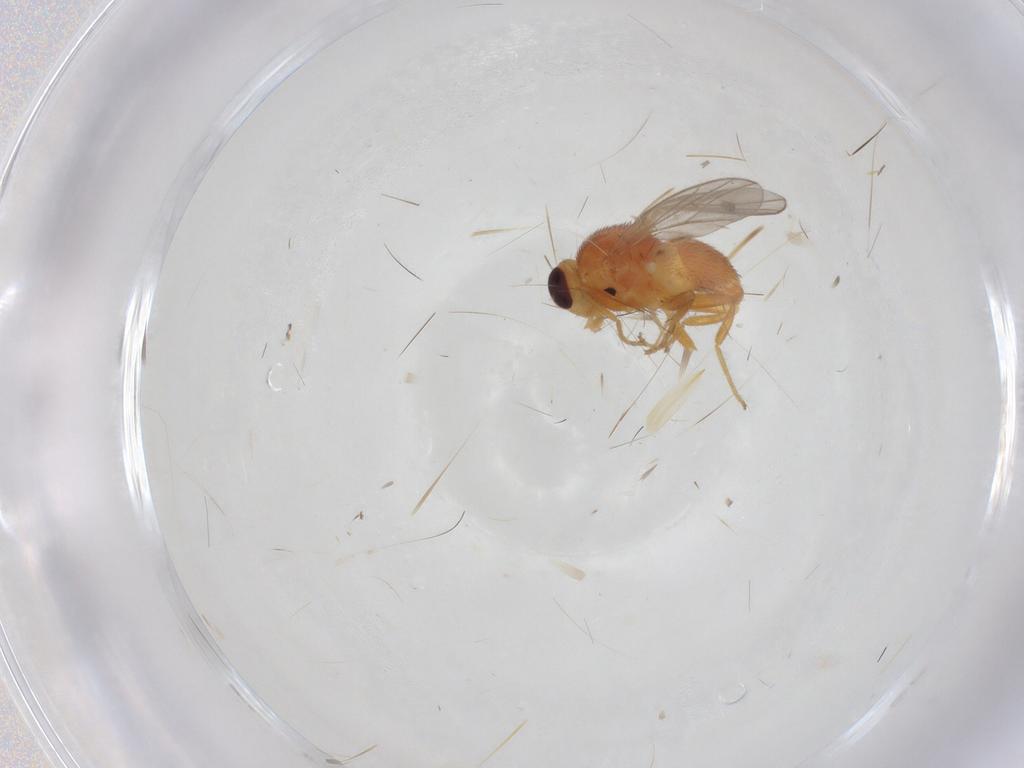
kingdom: Animalia
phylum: Arthropoda
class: Insecta
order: Diptera
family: Chloropidae
